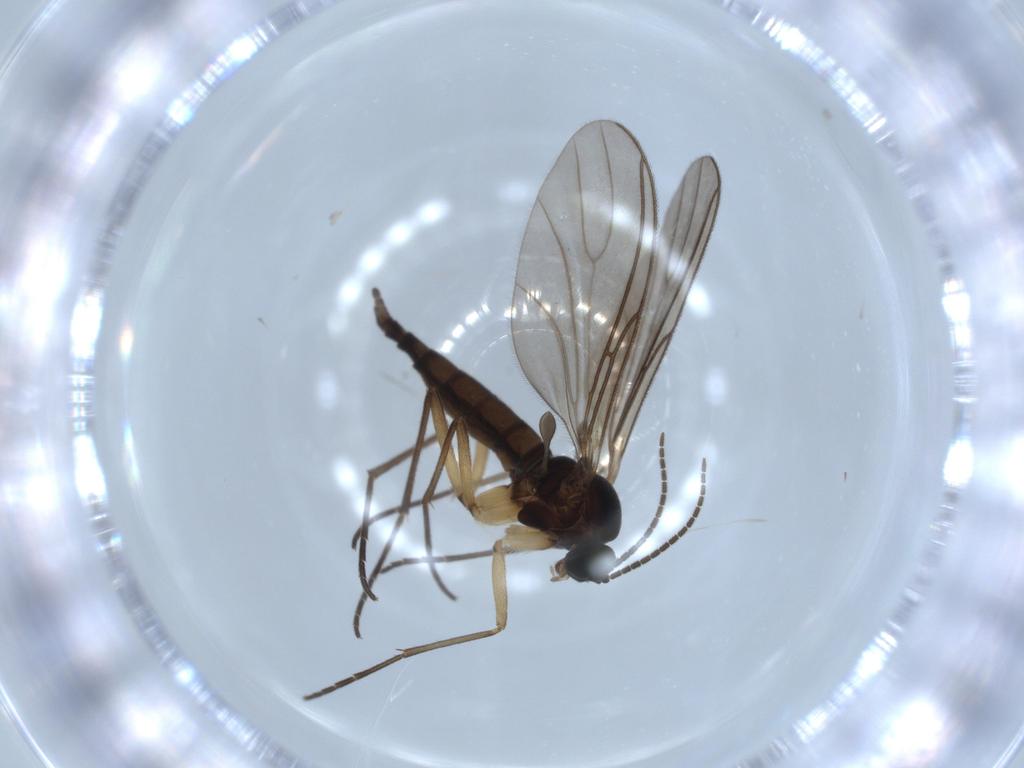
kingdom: Animalia
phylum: Arthropoda
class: Insecta
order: Diptera
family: Sciaridae
